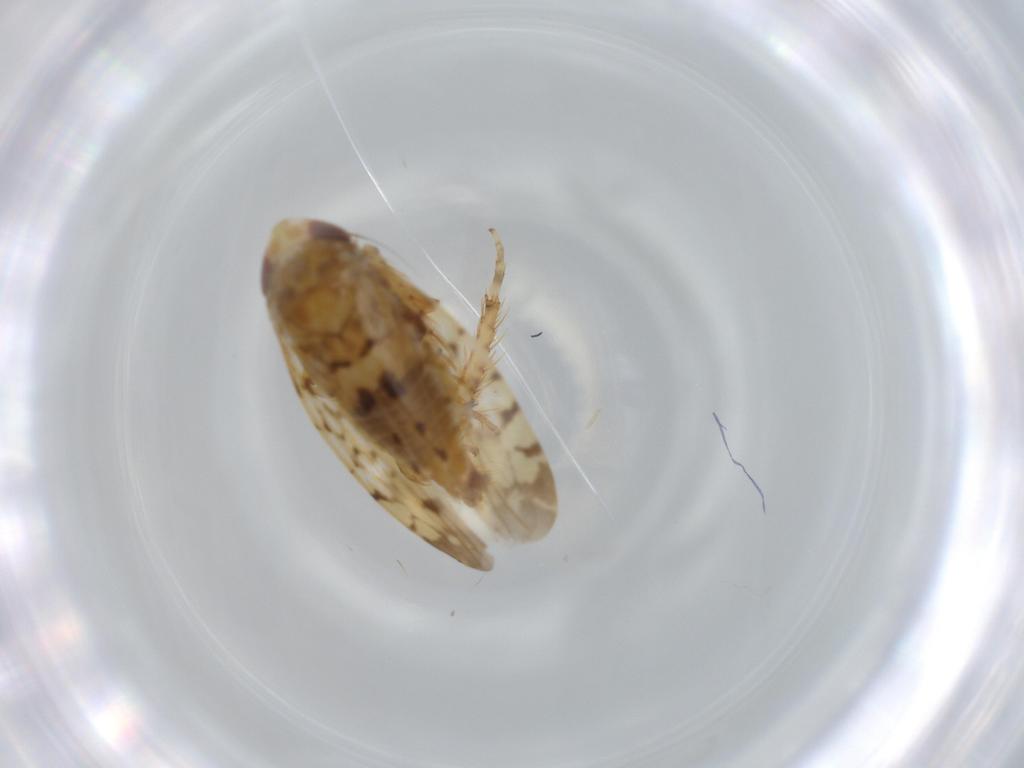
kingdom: Animalia
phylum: Arthropoda
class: Insecta
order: Hemiptera
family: Cicadellidae
